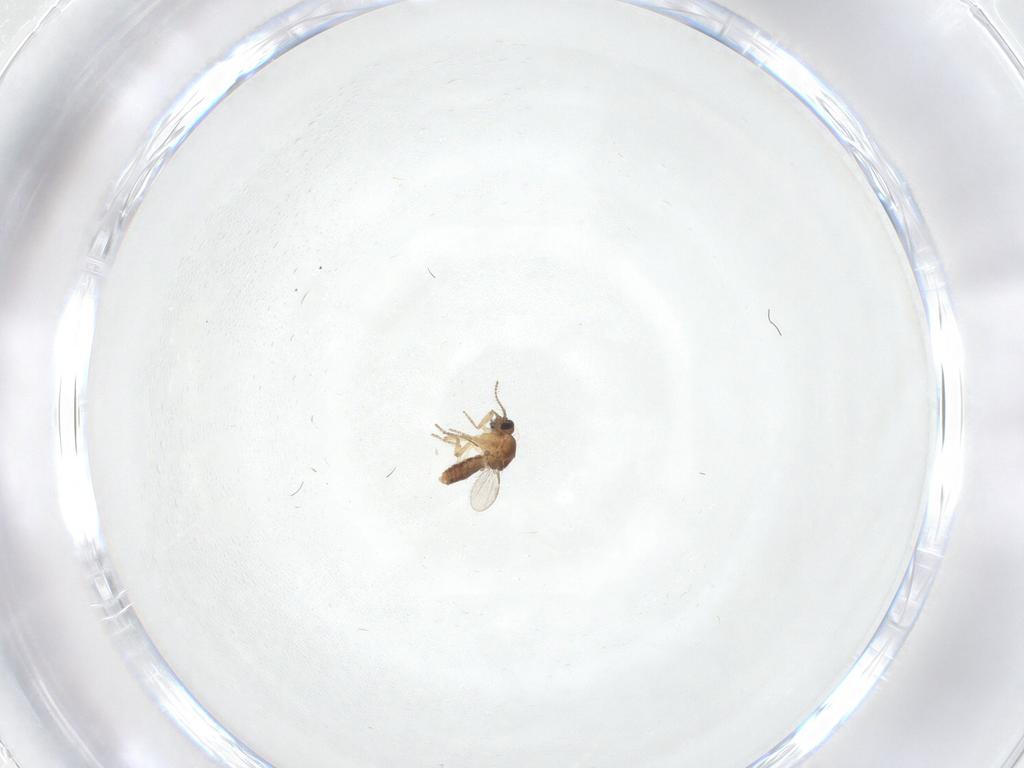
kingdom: Animalia
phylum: Arthropoda
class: Insecta
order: Diptera
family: Ceratopogonidae
